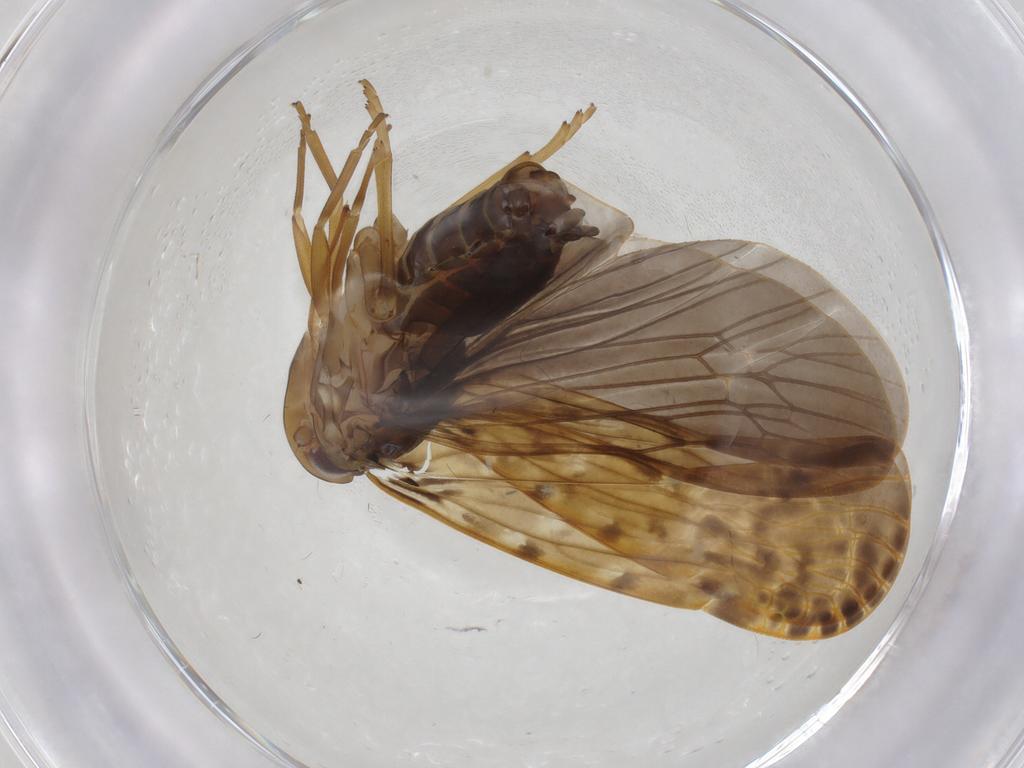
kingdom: Animalia
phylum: Arthropoda
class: Insecta
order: Hemiptera
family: Achilidae
